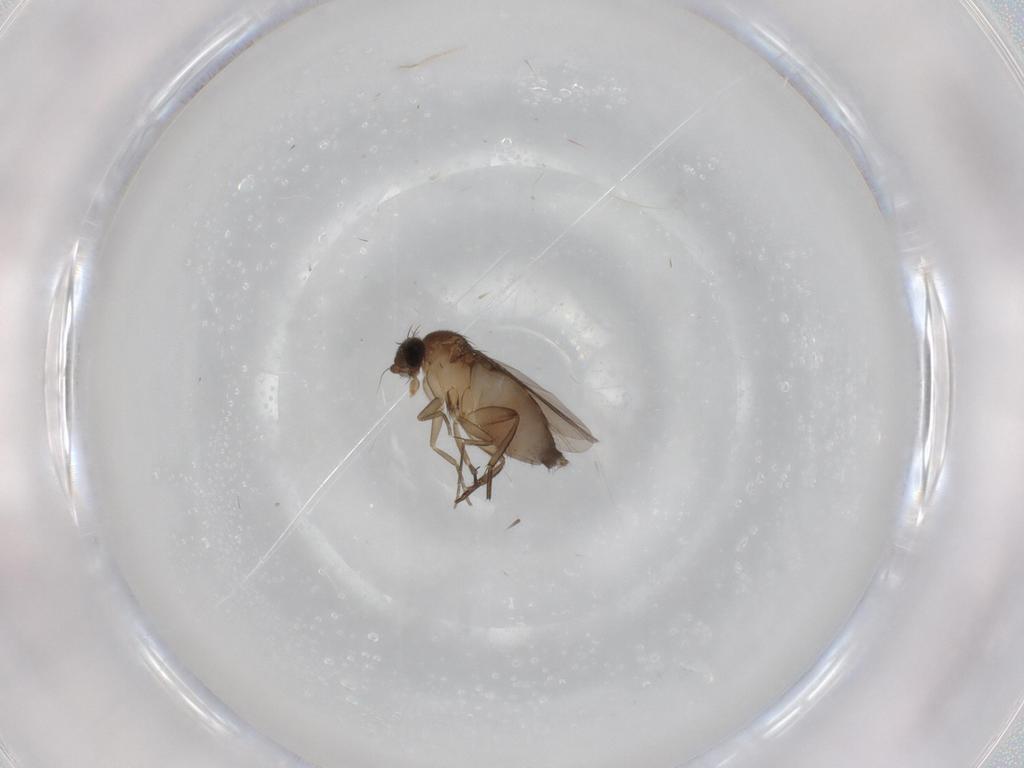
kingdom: Animalia
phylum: Arthropoda
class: Insecta
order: Diptera
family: Phoridae
